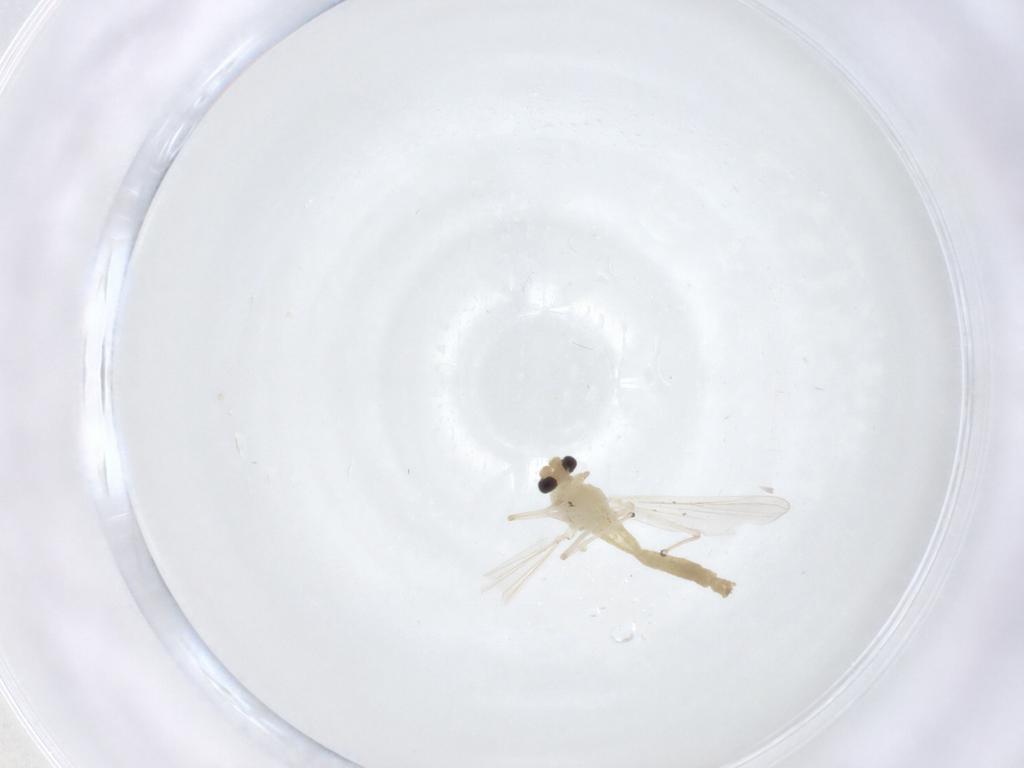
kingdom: Animalia
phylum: Arthropoda
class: Insecta
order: Diptera
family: Chironomidae
